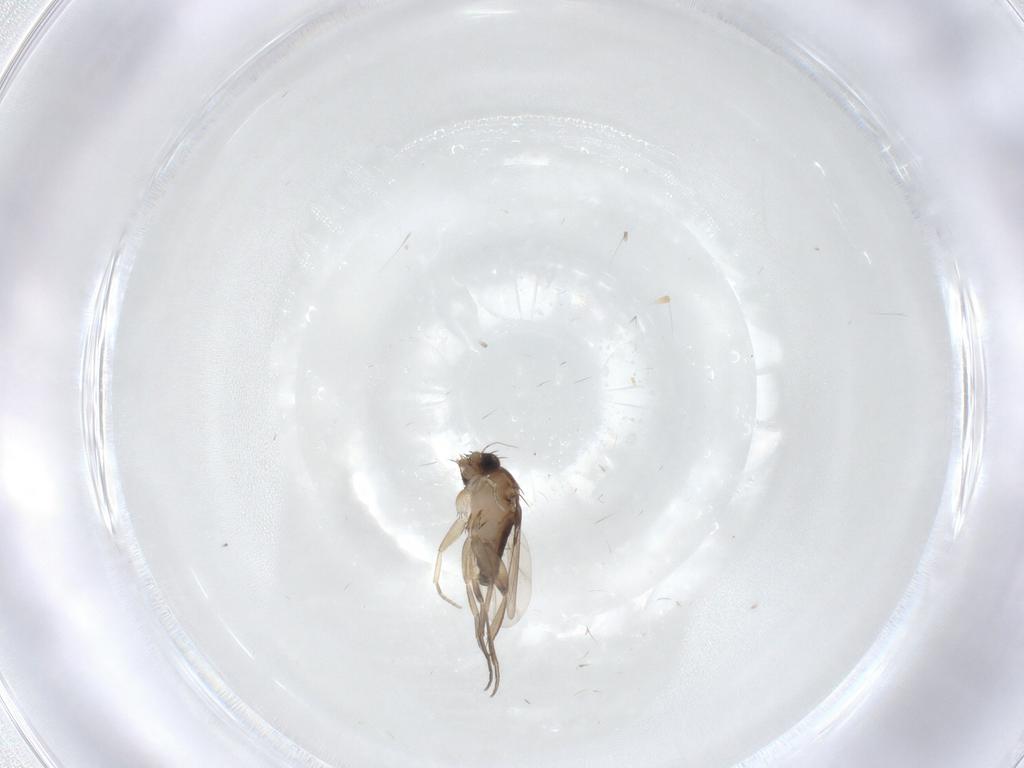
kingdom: Animalia
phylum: Arthropoda
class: Insecta
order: Diptera
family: Phoridae
